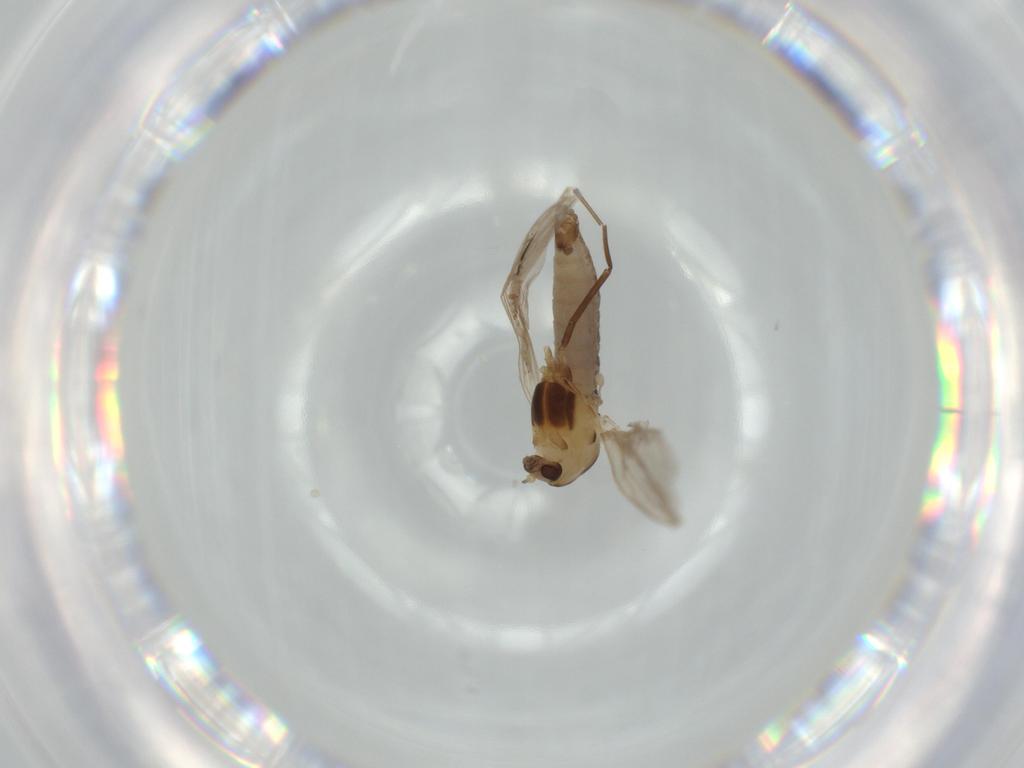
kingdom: Animalia
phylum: Arthropoda
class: Insecta
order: Diptera
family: Chironomidae
